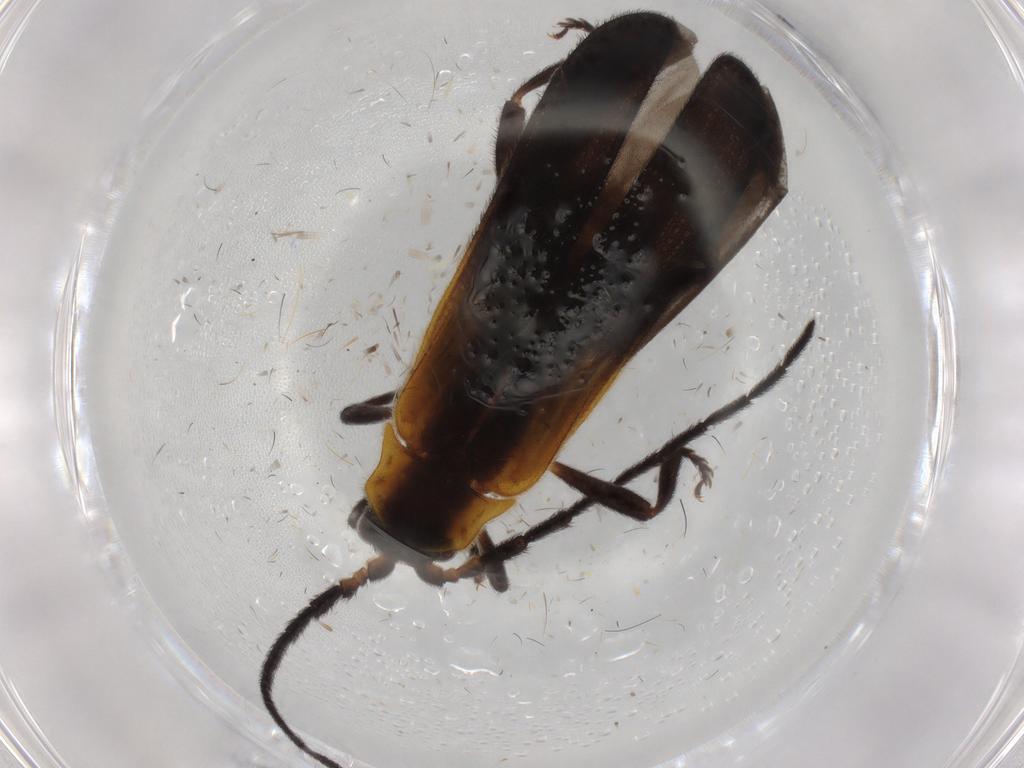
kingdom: Animalia
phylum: Arthropoda
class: Insecta
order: Coleoptera
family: Lycidae
